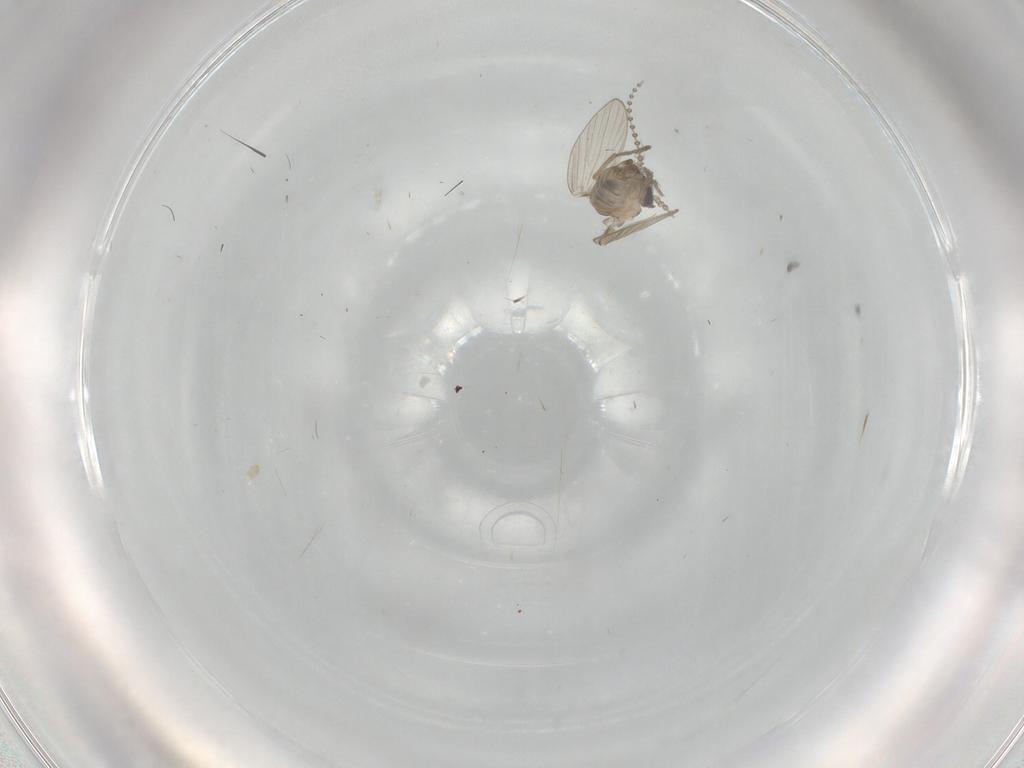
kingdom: Animalia
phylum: Arthropoda
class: Insecta
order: Diptera
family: Psychodidae
